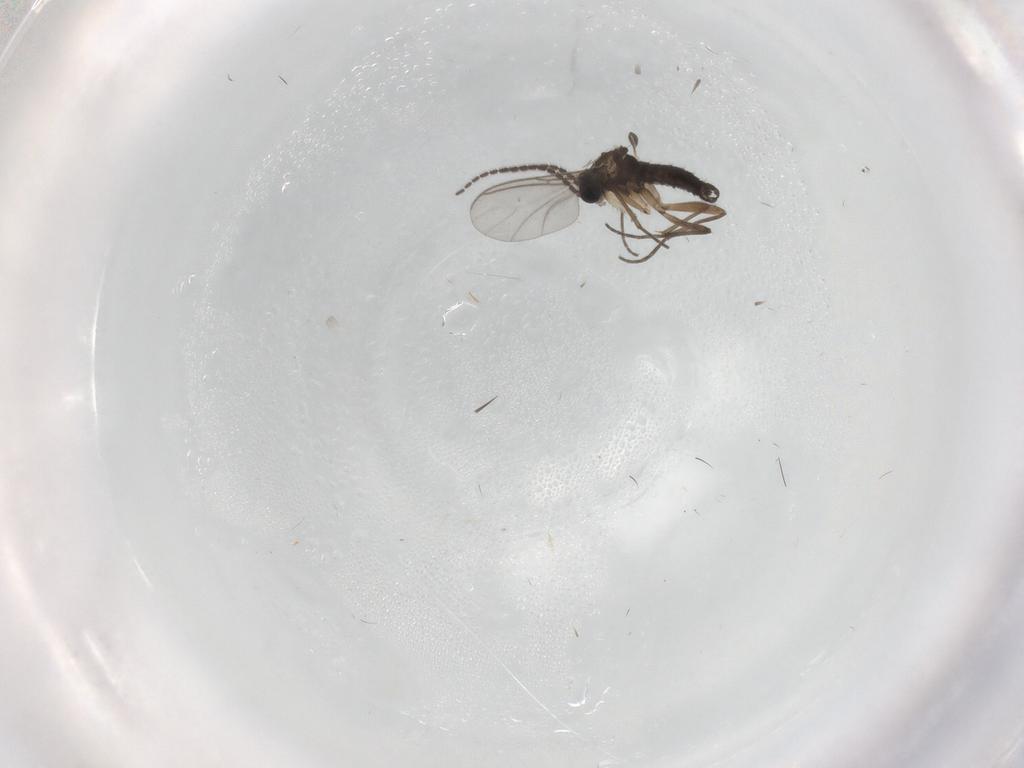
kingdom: Animalia
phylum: Arthropoda
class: Insecta
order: Diptera
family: Sciaridae
